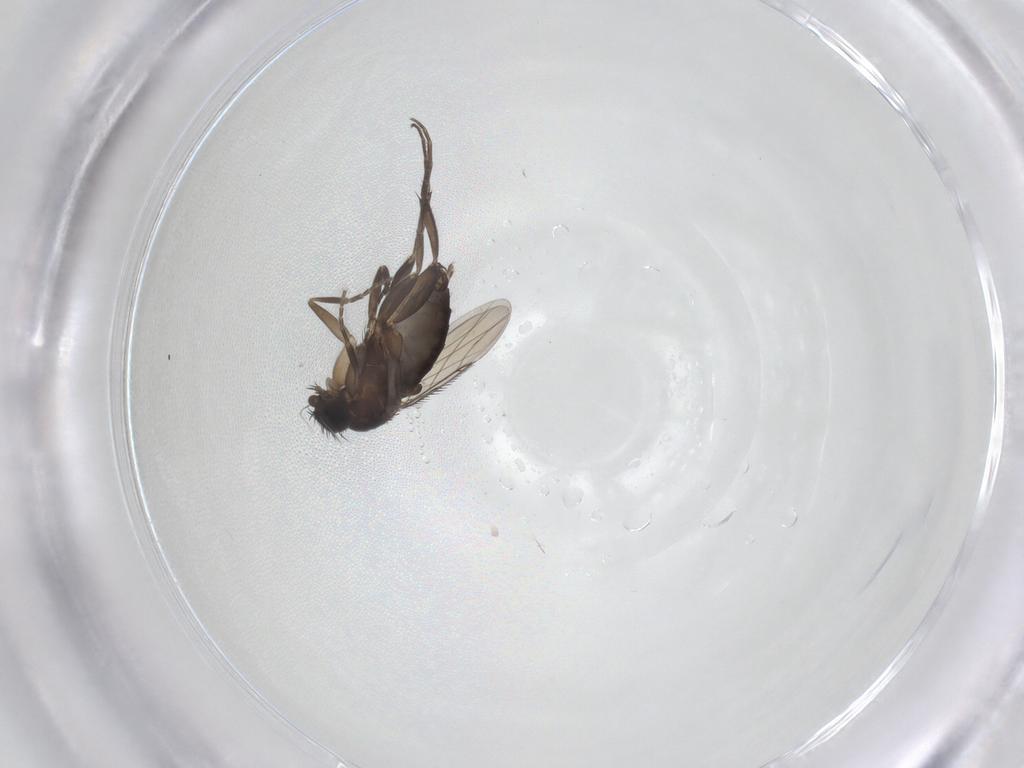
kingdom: Animalia
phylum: Arthropoda
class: Insecta
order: Diptera
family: Phoridae
